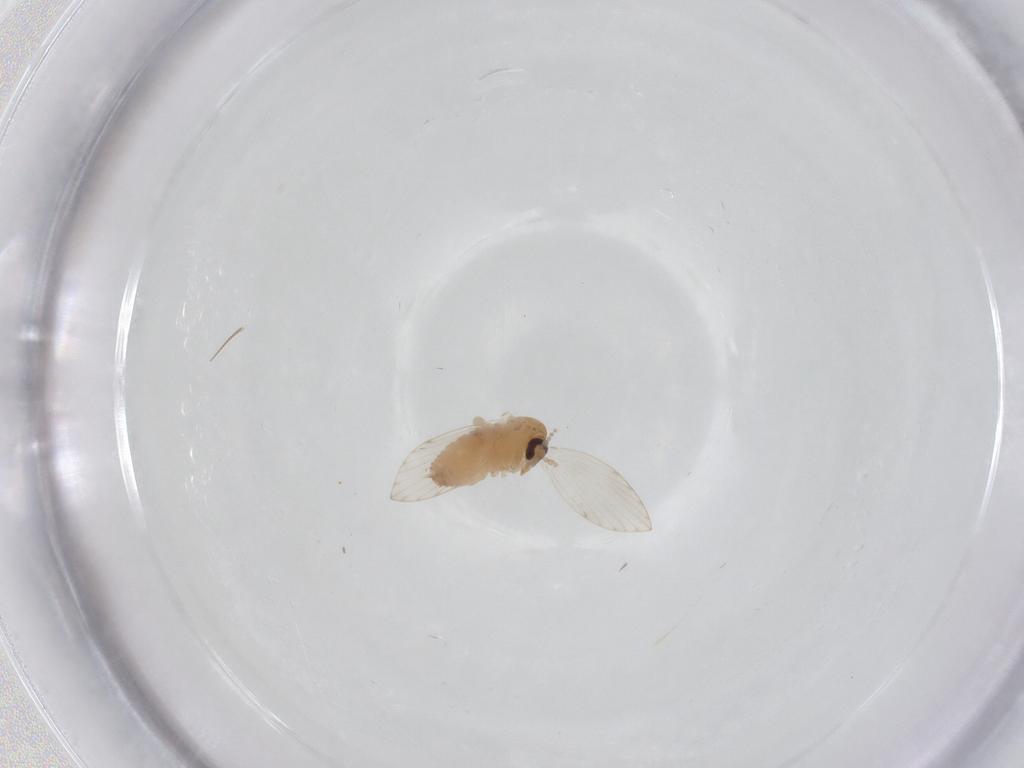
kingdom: Animalia
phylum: Arthropoda
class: Insecta
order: Diptera
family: Psychodidae
